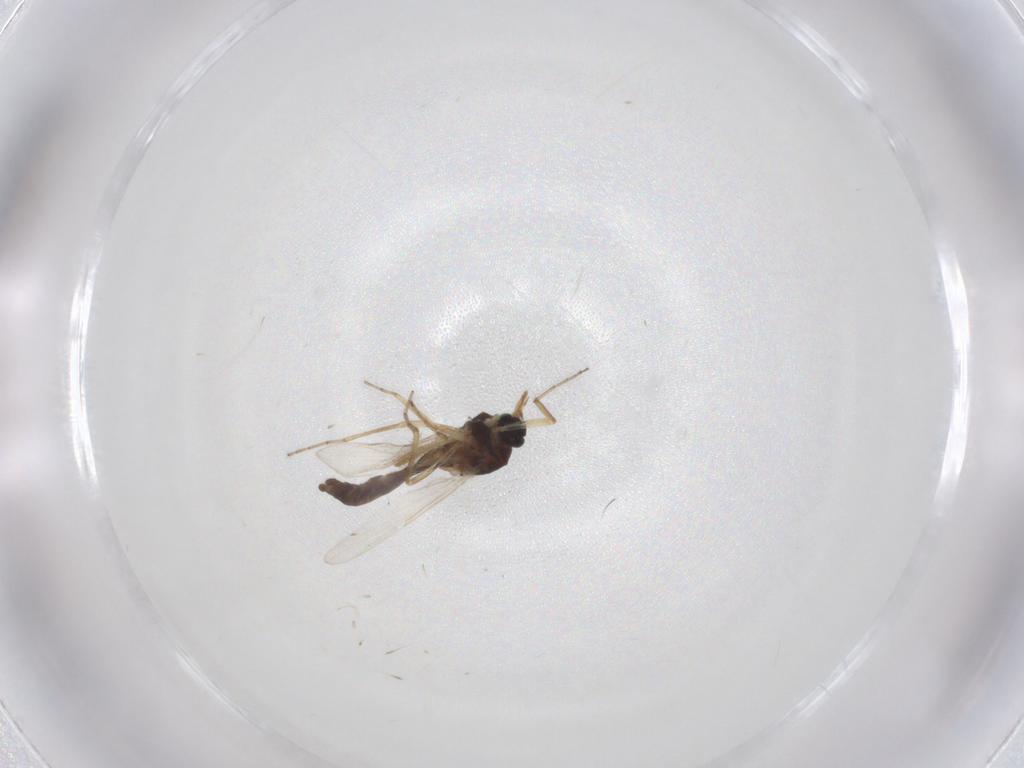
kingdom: Animalia
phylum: Arthropoda
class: Insecta
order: Diptera
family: Ceratopogonidae
